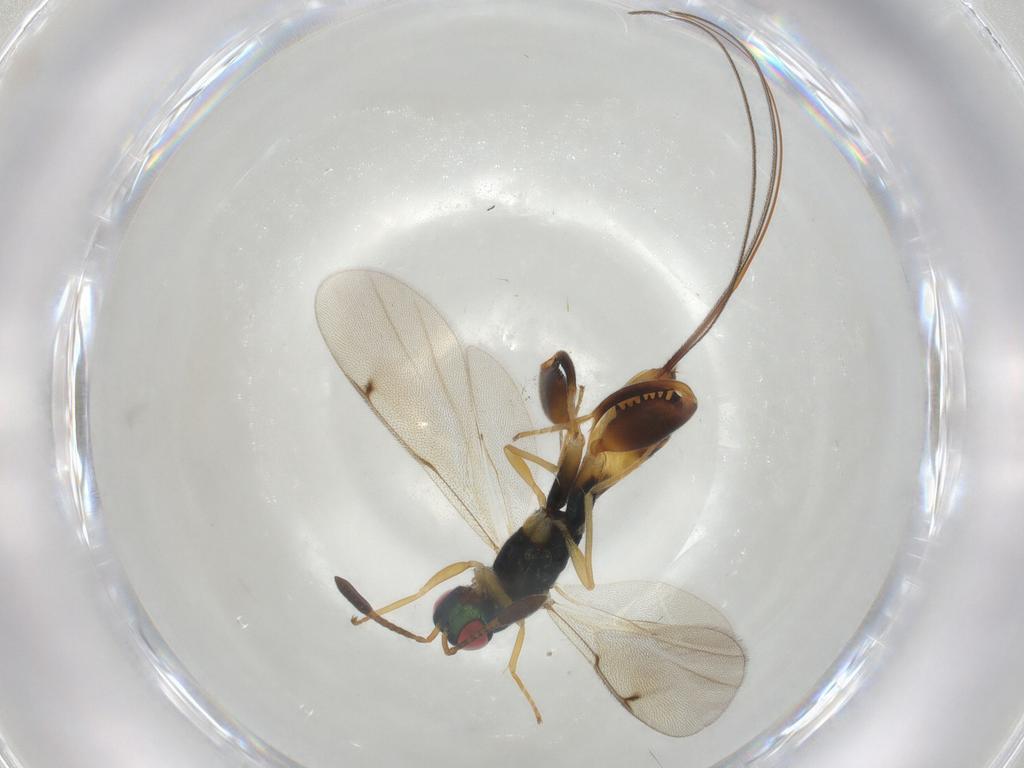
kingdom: Animalia
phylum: Arthropoda
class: Insecta
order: Hymenoptera
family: Torymidae
